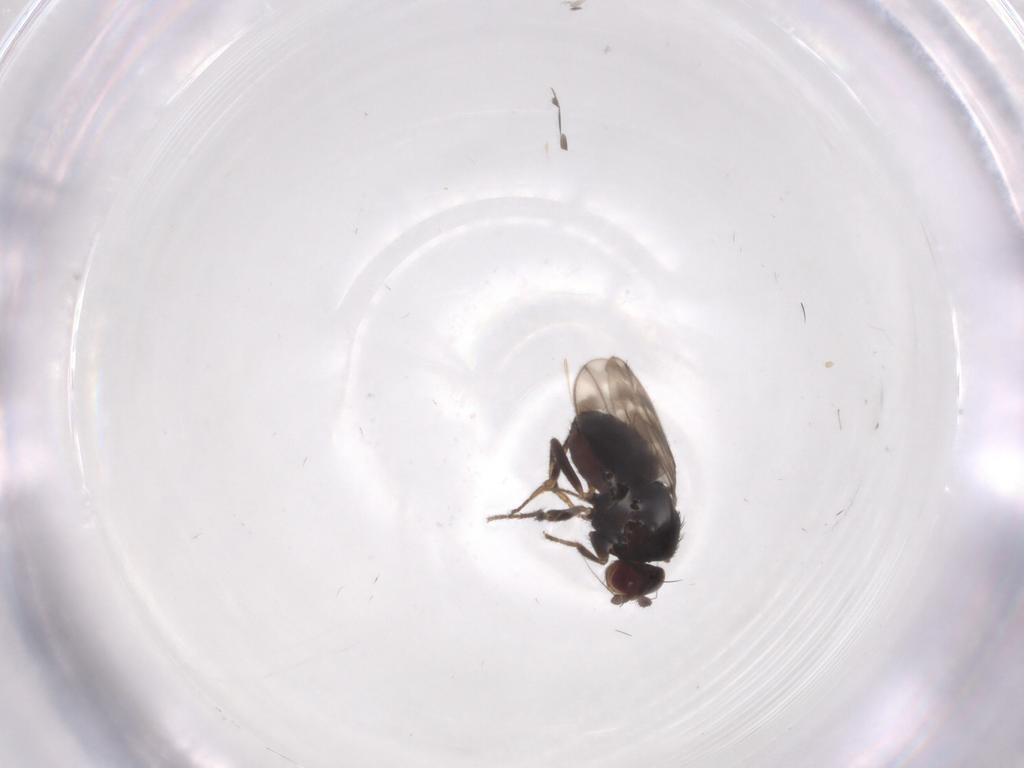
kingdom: Animalia
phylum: Arthropoda
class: Insecta
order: Diptera
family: Sphaeroceridae
